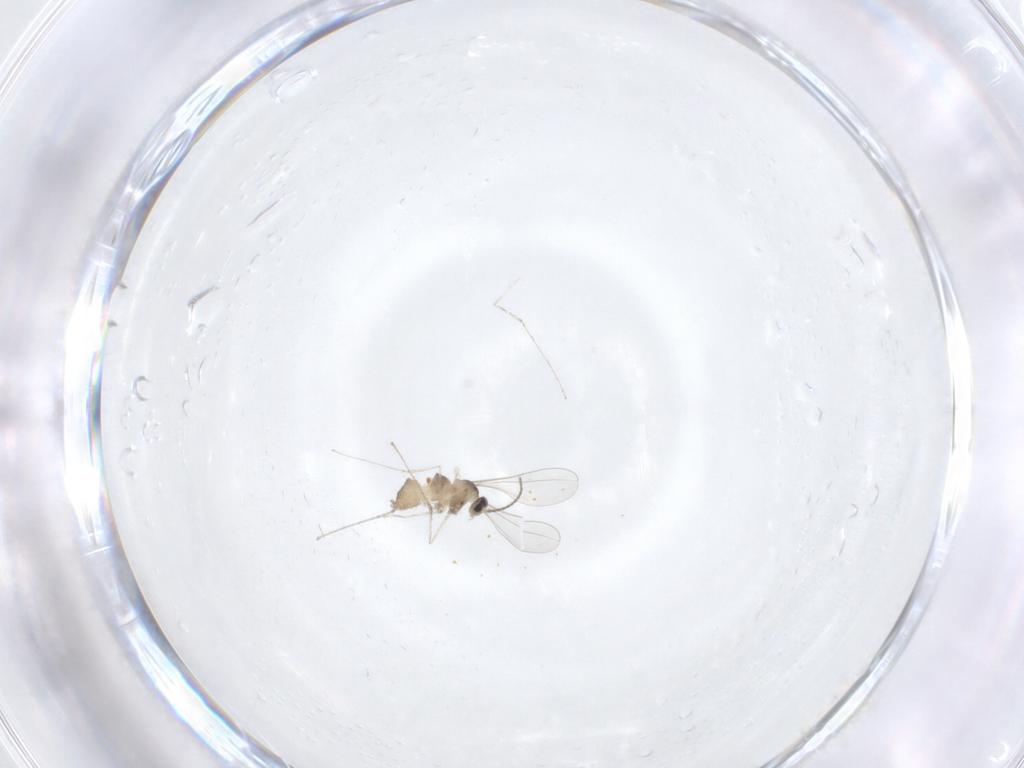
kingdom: Animalia
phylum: Arthropoda
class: Insecta
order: Diptera
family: Cecidomyiidae
